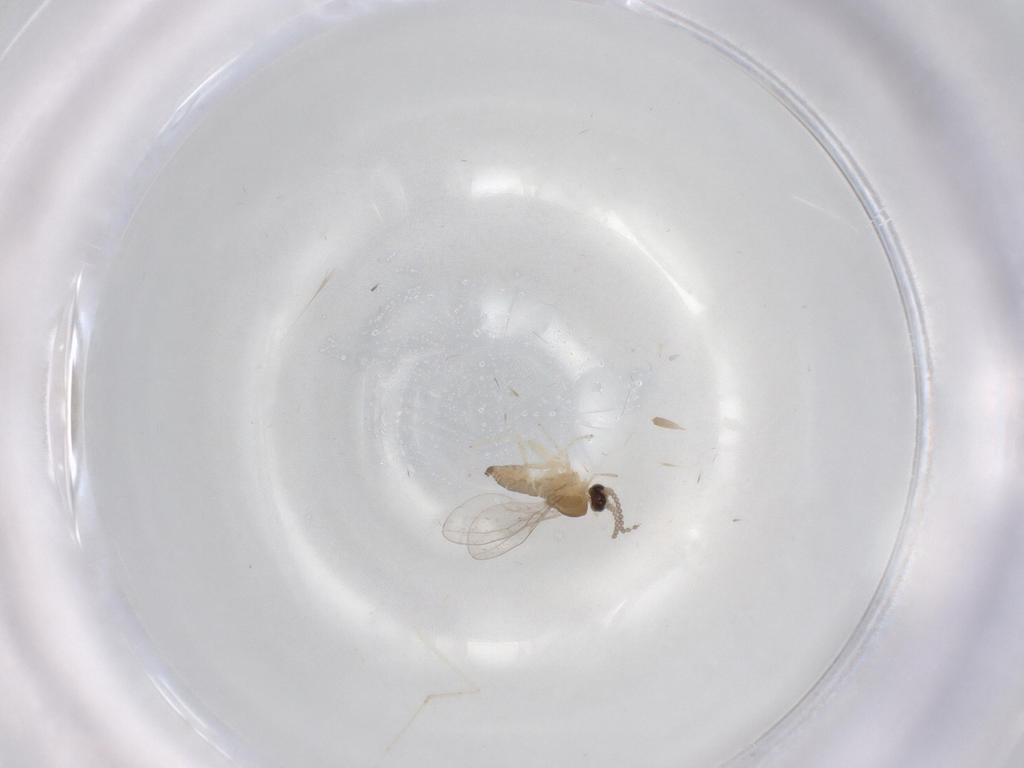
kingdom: Animalia
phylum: Arthropoda
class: Insecta
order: Diptera
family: Cecidomyiidae
